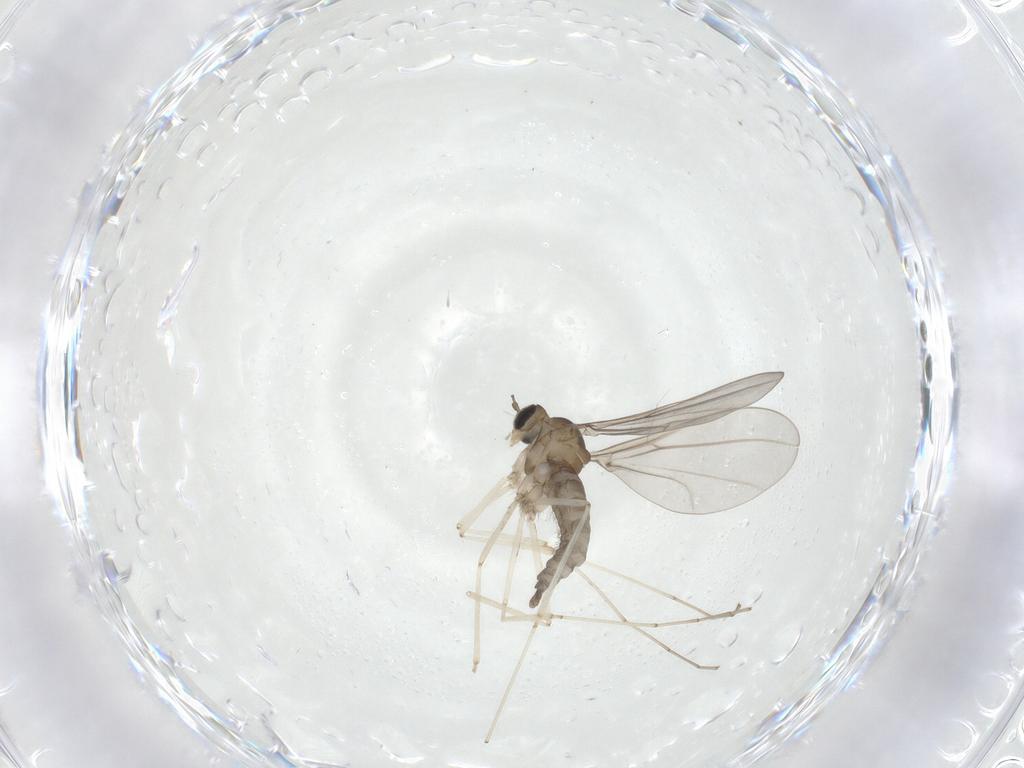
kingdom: Animalia
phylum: Arthropoda
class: Insecta
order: Diptera
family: Cecidomyiidae
